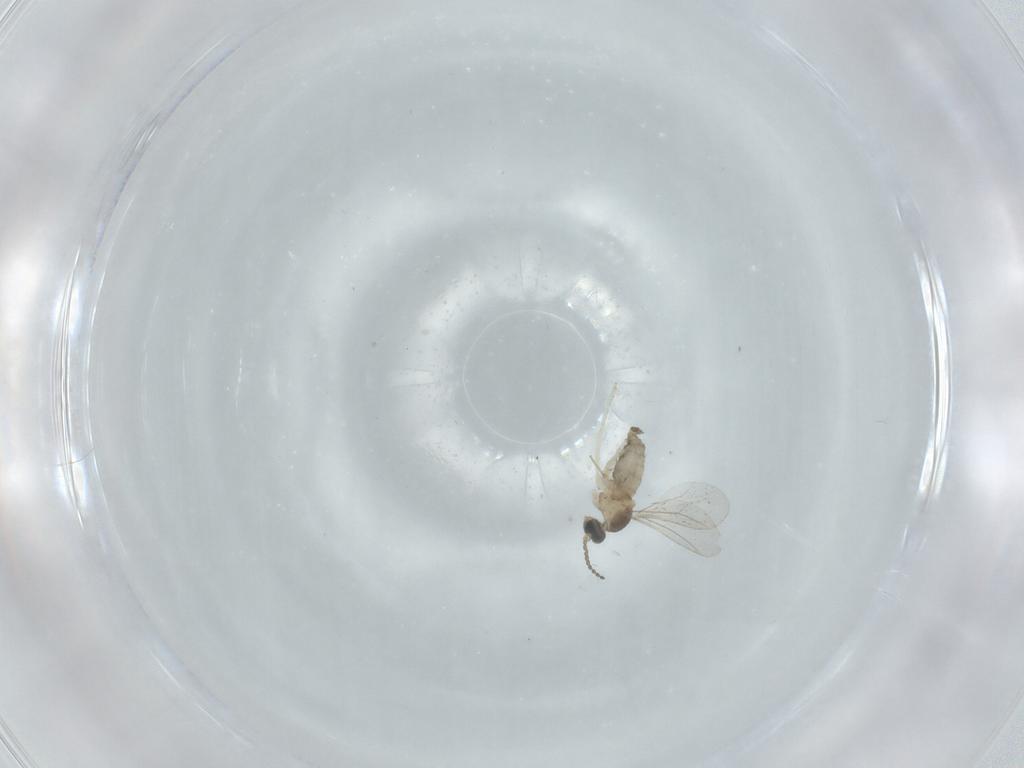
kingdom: Animalia
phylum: Arthropoda
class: Insecta
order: Diptera
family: Cecidomyiidae
